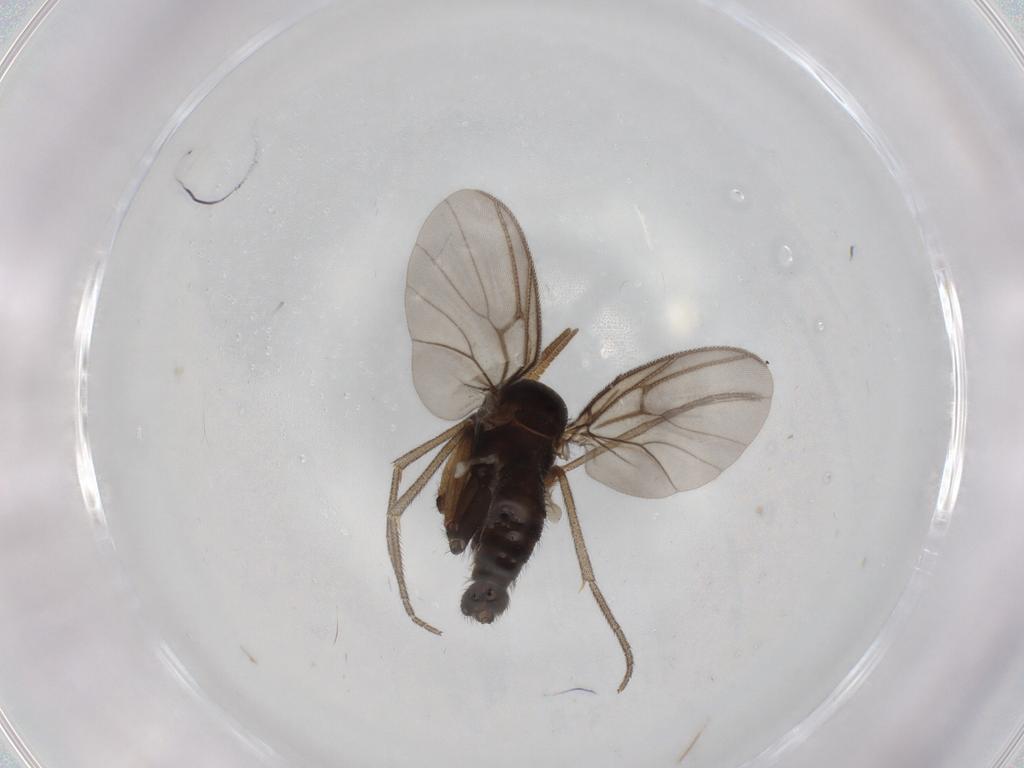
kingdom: Animalia
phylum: Arthropoda
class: Insecta
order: Diptera
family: Mycetophilidae
